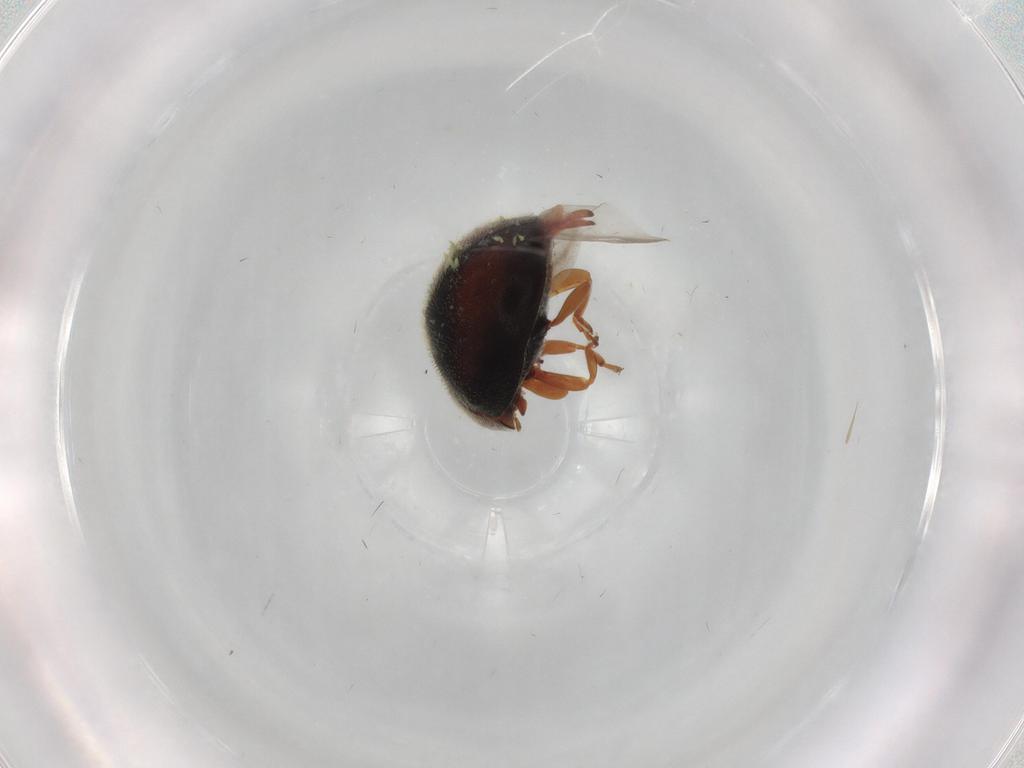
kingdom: Animalia
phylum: Arthropoda
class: Insecta
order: Coleoptera
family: Coccinellidae
